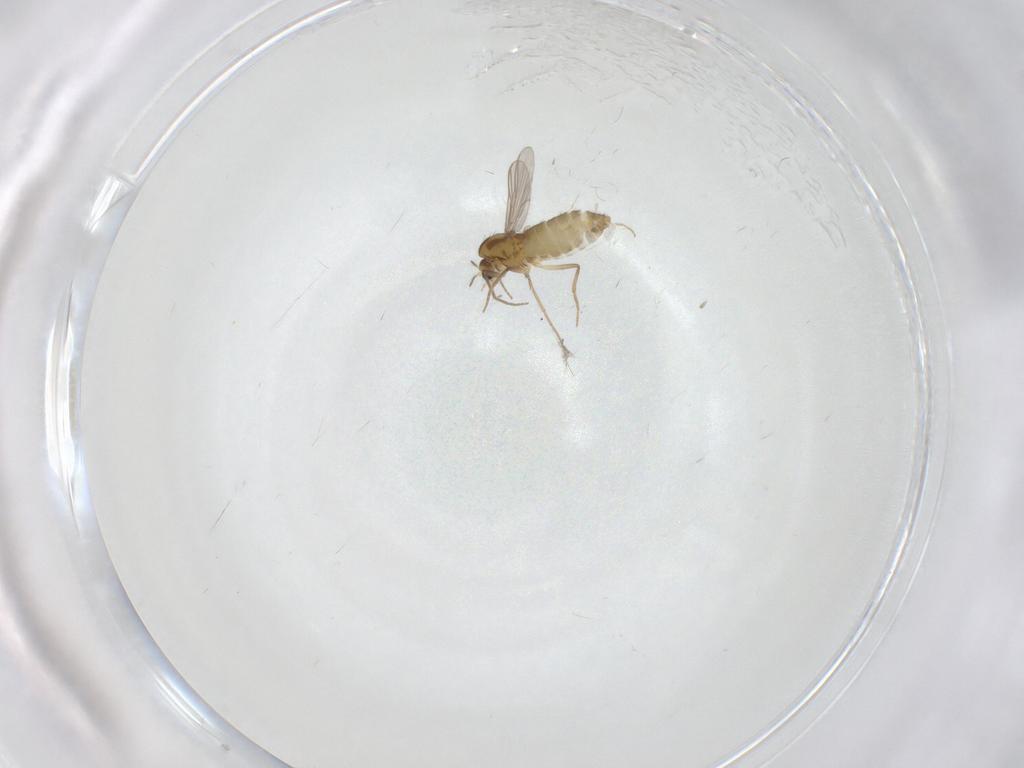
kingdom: Animalia
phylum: Arthropoda
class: Insecta
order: Diptera
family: Chironomidae
